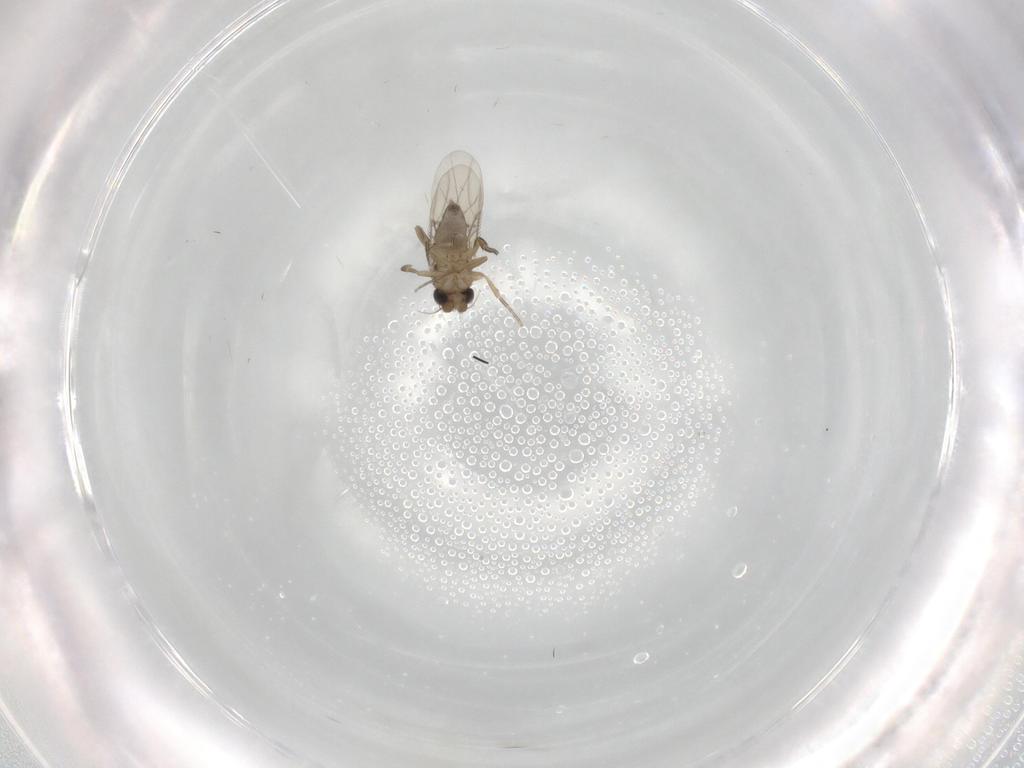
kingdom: Animalia
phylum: Arthropoda
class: Insecta
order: Diptera
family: Phoridae
